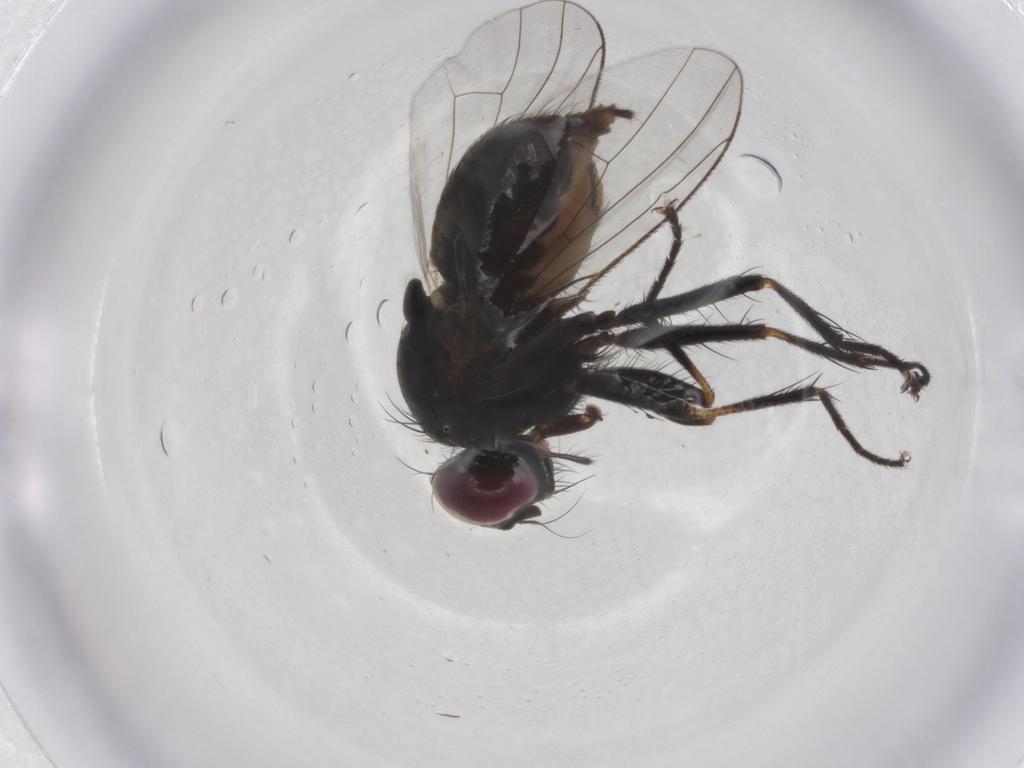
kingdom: Animalia
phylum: Arthropoda
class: Insecta
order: Diptera
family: Muscidae
